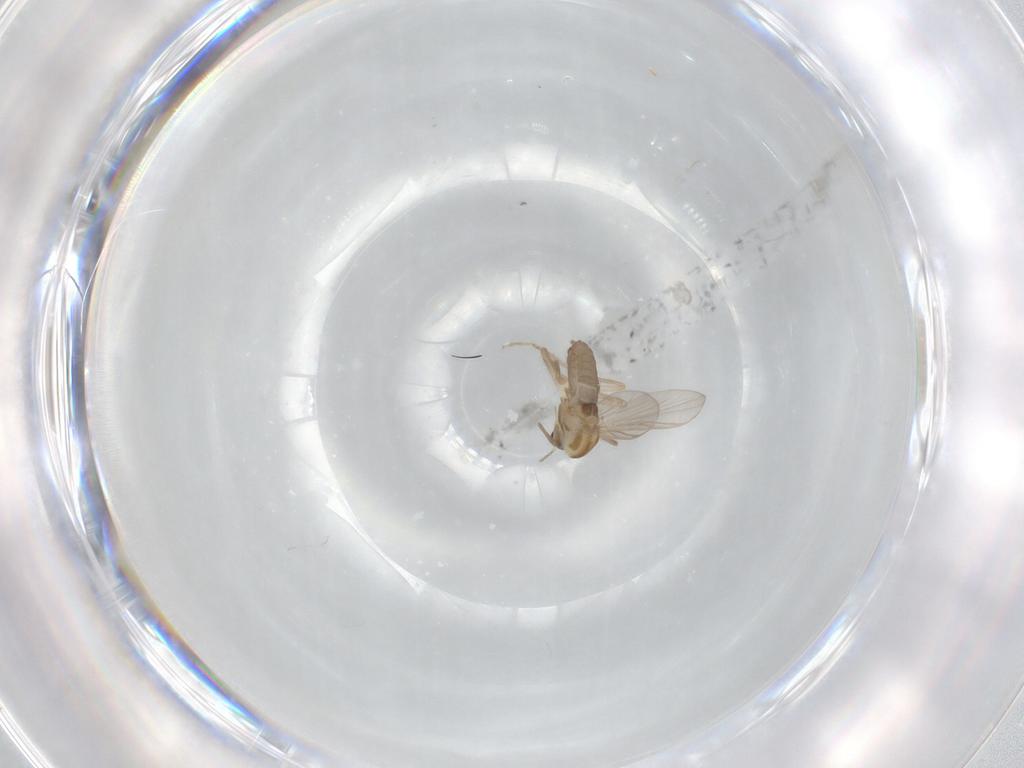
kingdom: Animalia
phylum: Arthropoda
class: Insecta
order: Diptera
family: Chironomidae
